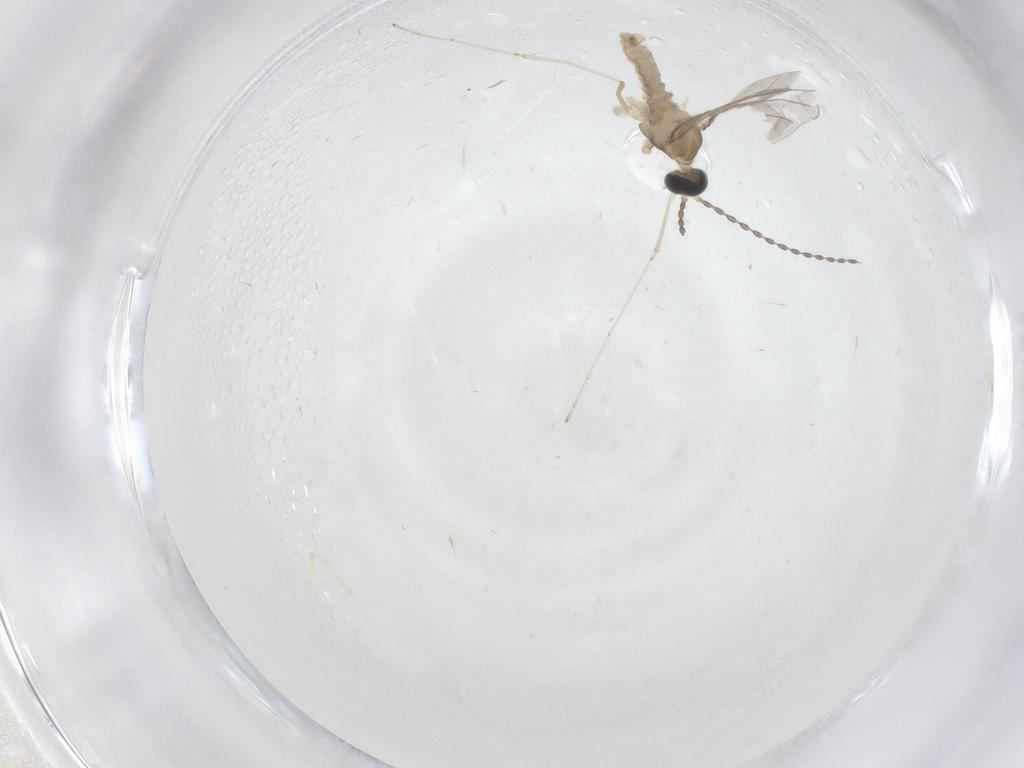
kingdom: Animalia
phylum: Arthropoda
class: Insecta
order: Diptera
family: Cecidomyiidae
